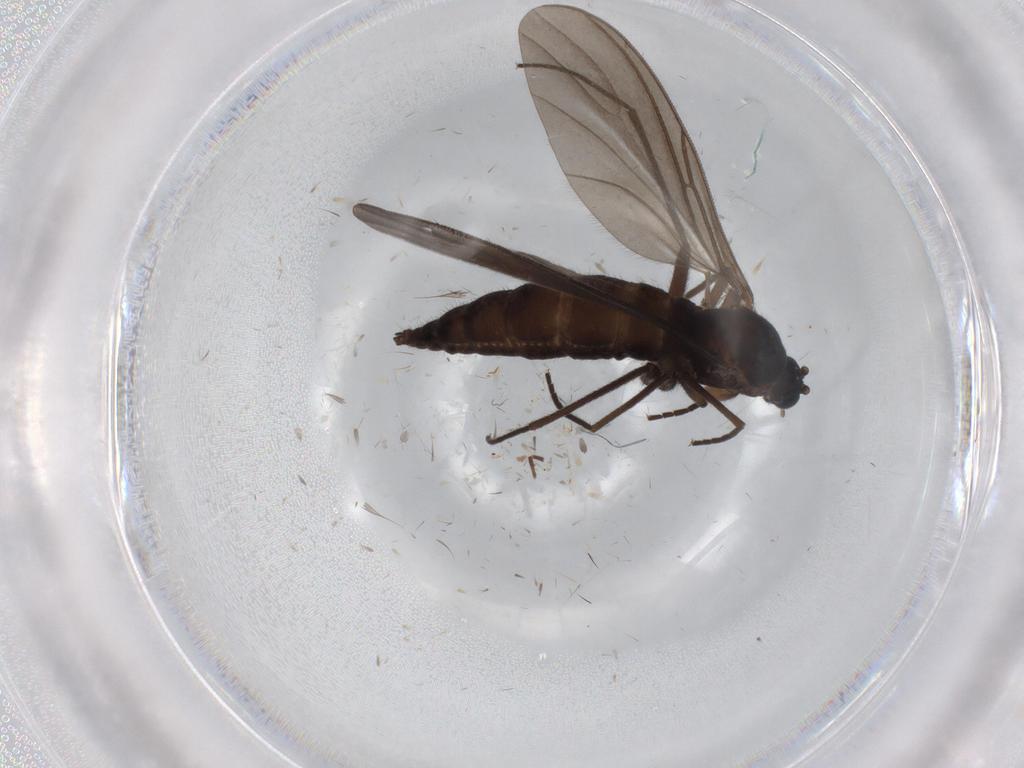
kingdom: Animalia
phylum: Arthropoda
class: Insecta
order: Diptera
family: Sciaridae
